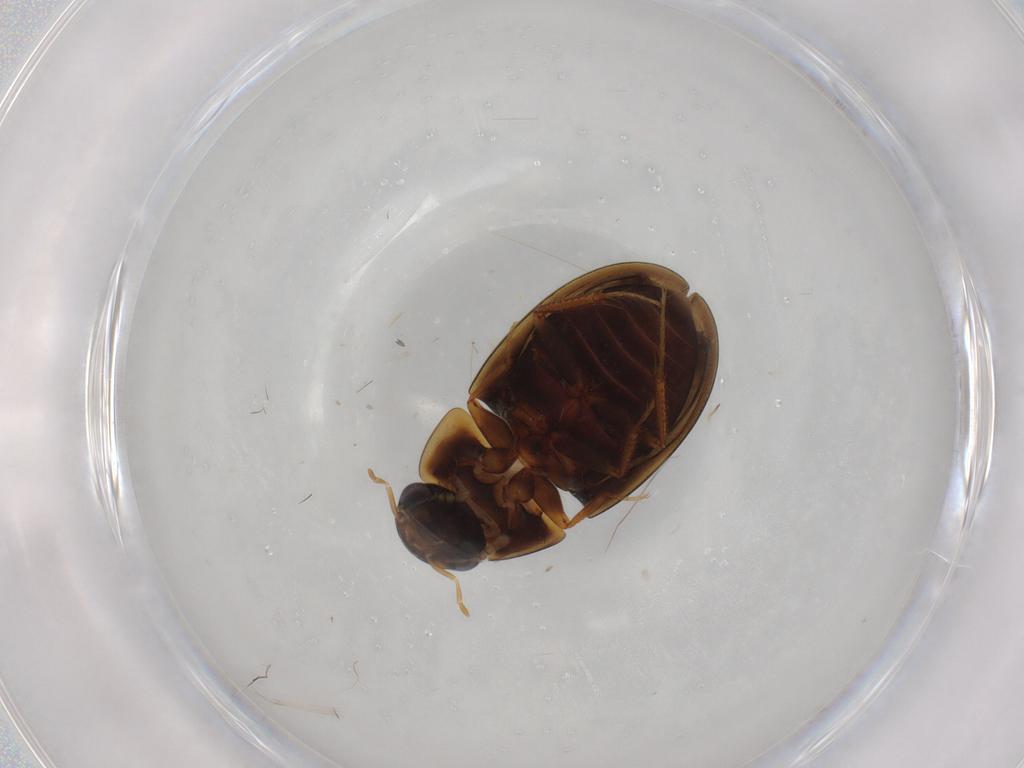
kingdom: Animalia
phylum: Arthropoda
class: Insecta
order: Coleoptera
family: Hydrophilidae
